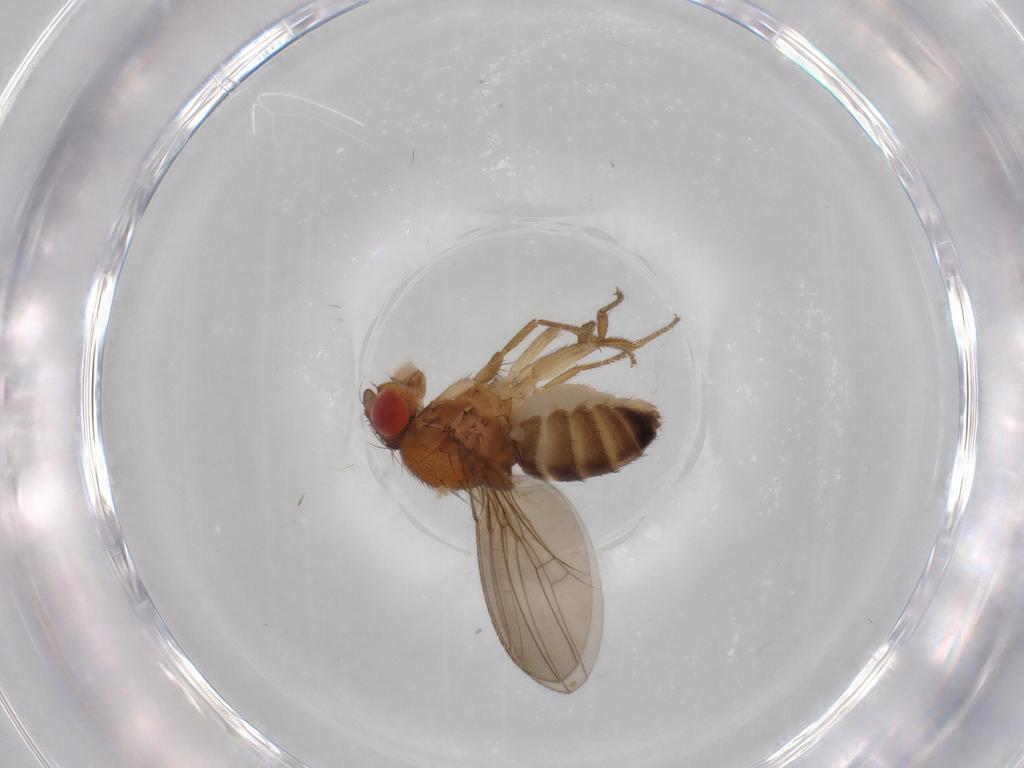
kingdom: Animalia
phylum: Arthropoda
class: Insecta
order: Diptera
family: Drosophilidae
